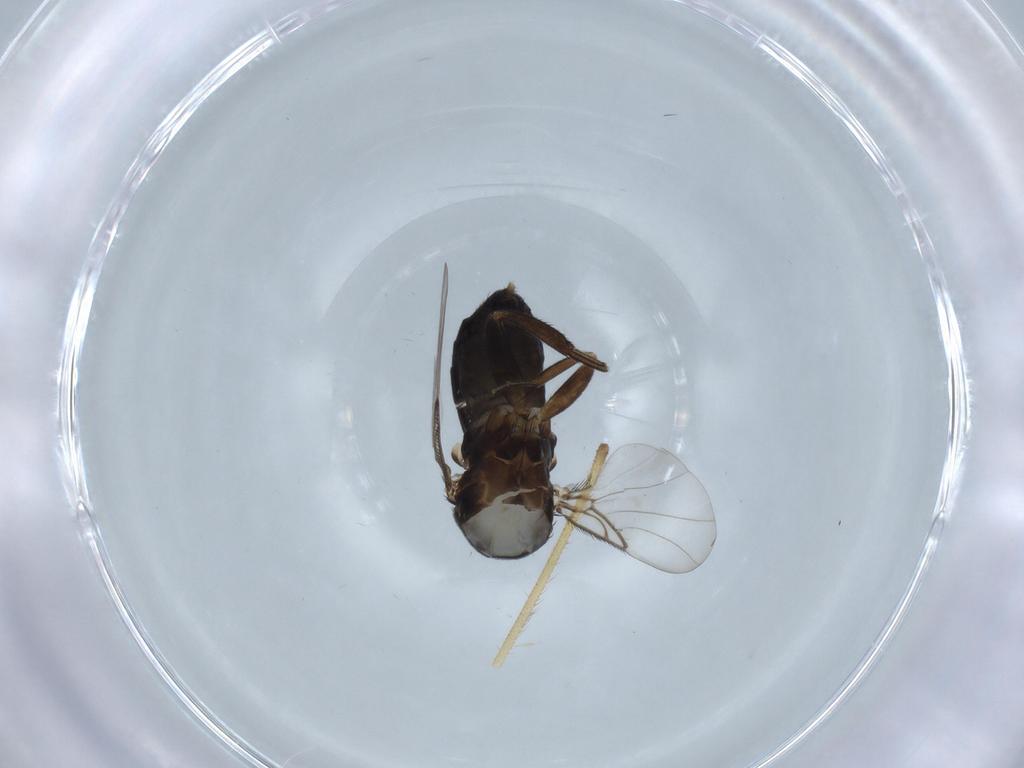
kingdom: Animalia
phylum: Arthropoda
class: Insecta
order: Diptera
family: Phoridae
